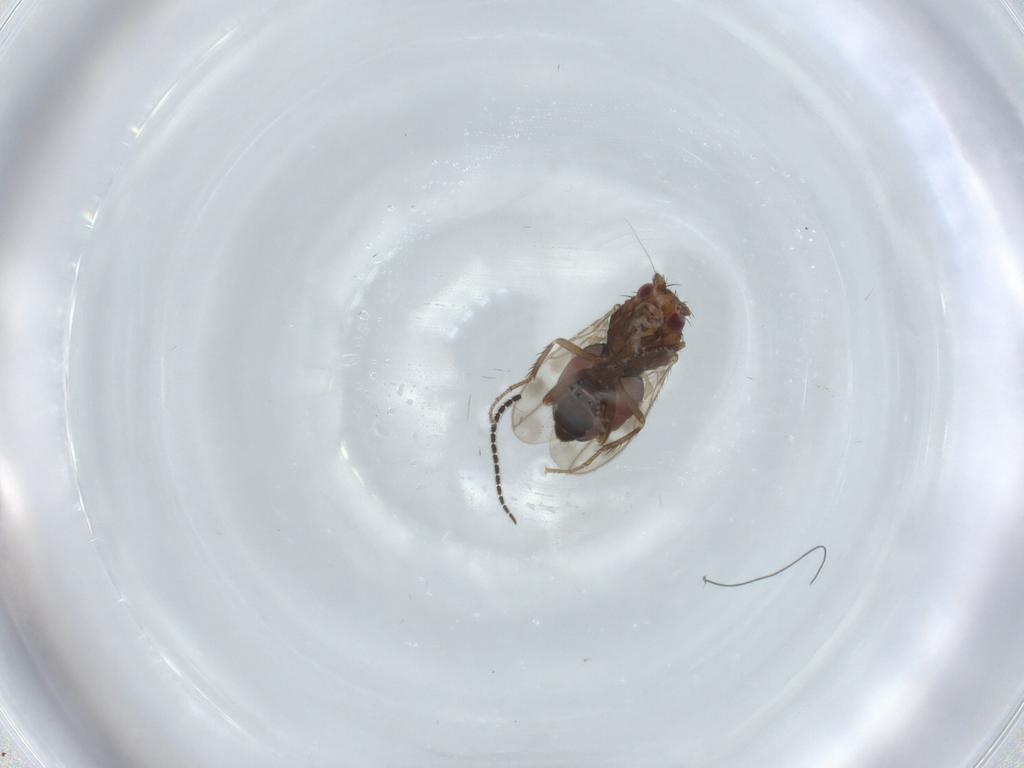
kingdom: Animalia
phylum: Arthropoda
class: Insecta
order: Diptera
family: Sphaeroceridae
